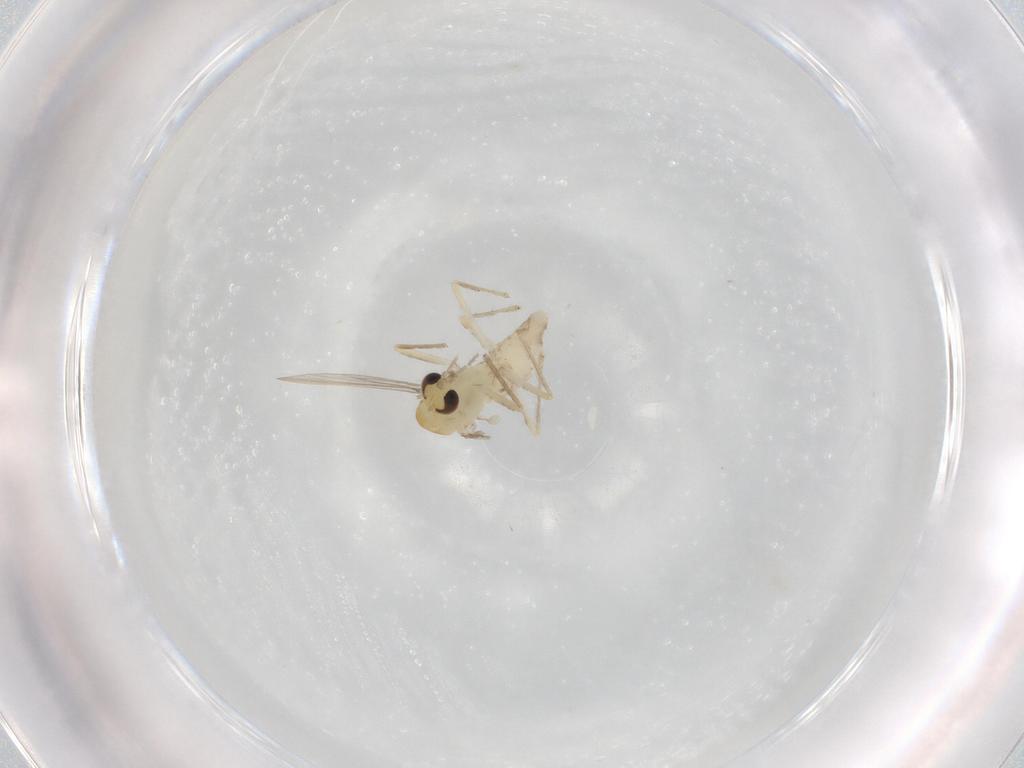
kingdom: Animalia
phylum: Arthropoda
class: Insecta
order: Diptera
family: Chironomidae
